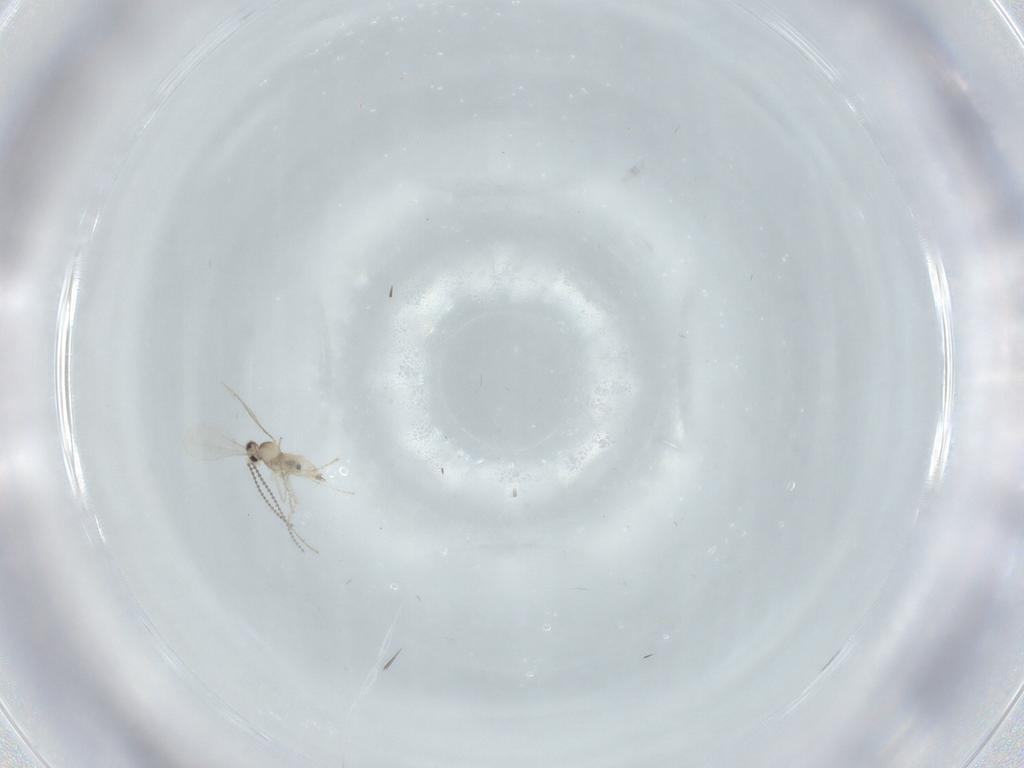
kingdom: Animalia
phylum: Arthropoda
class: Insecta
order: Diptera
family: Cecidomyiidae
